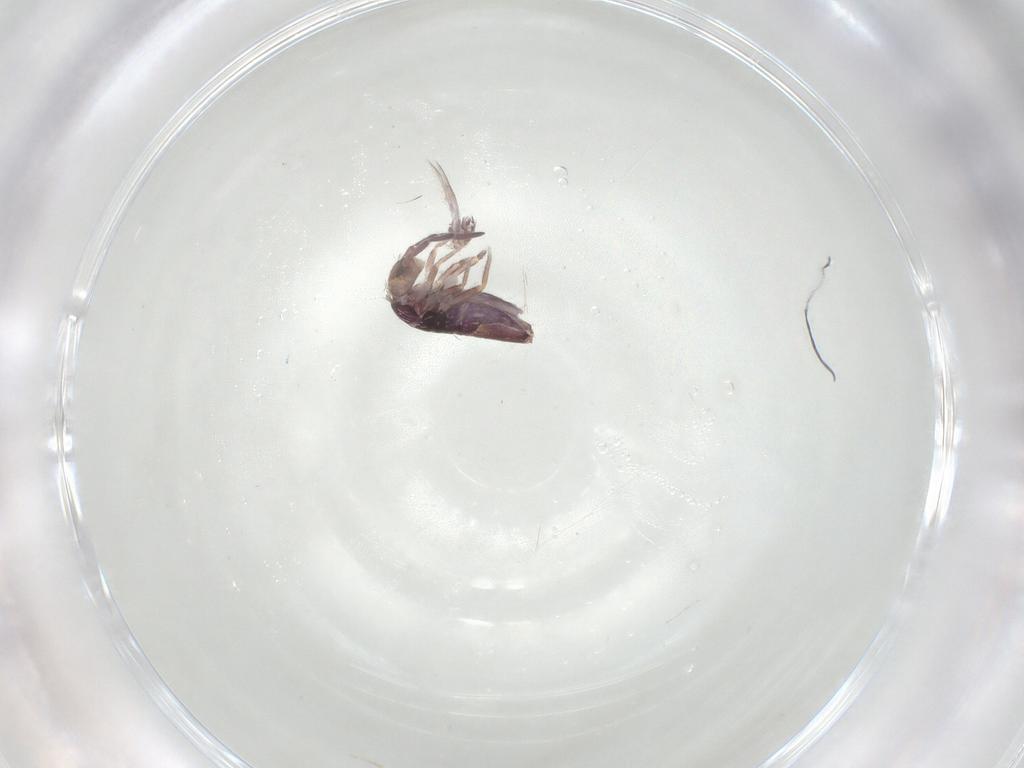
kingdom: Animalia
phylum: Arthropoda
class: Collembola
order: Entomobryomorpha
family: Entomobryidae
